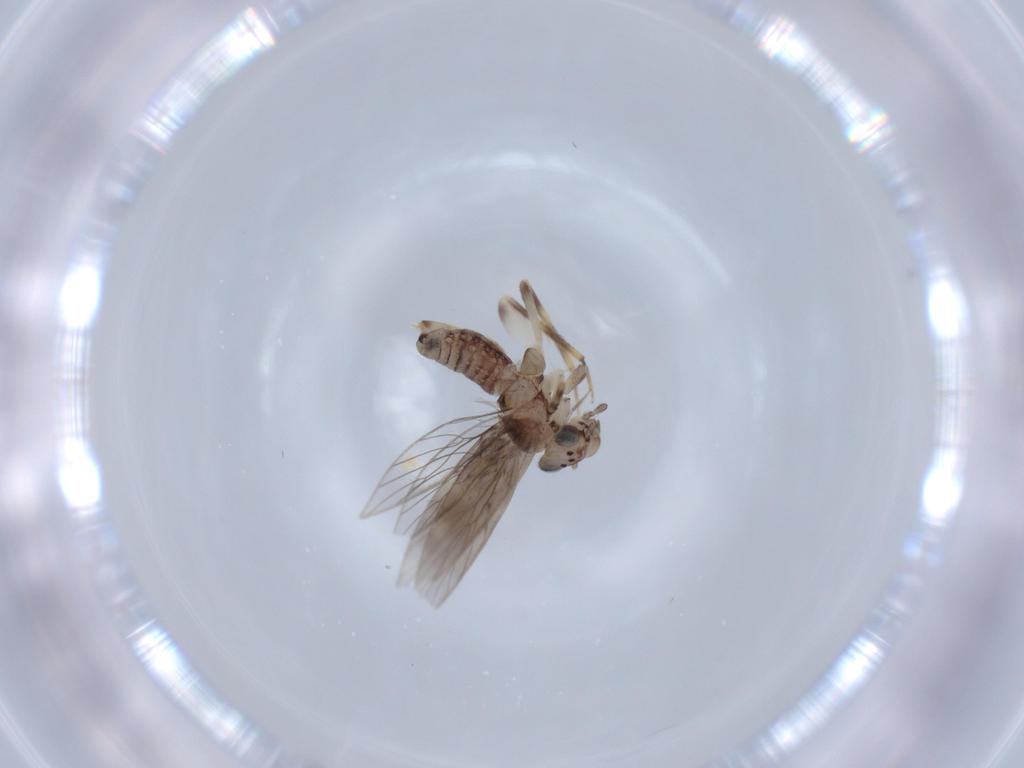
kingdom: Animalia
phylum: Arthropoda
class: Insecta
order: Psocodea
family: Lepidopsocidae
